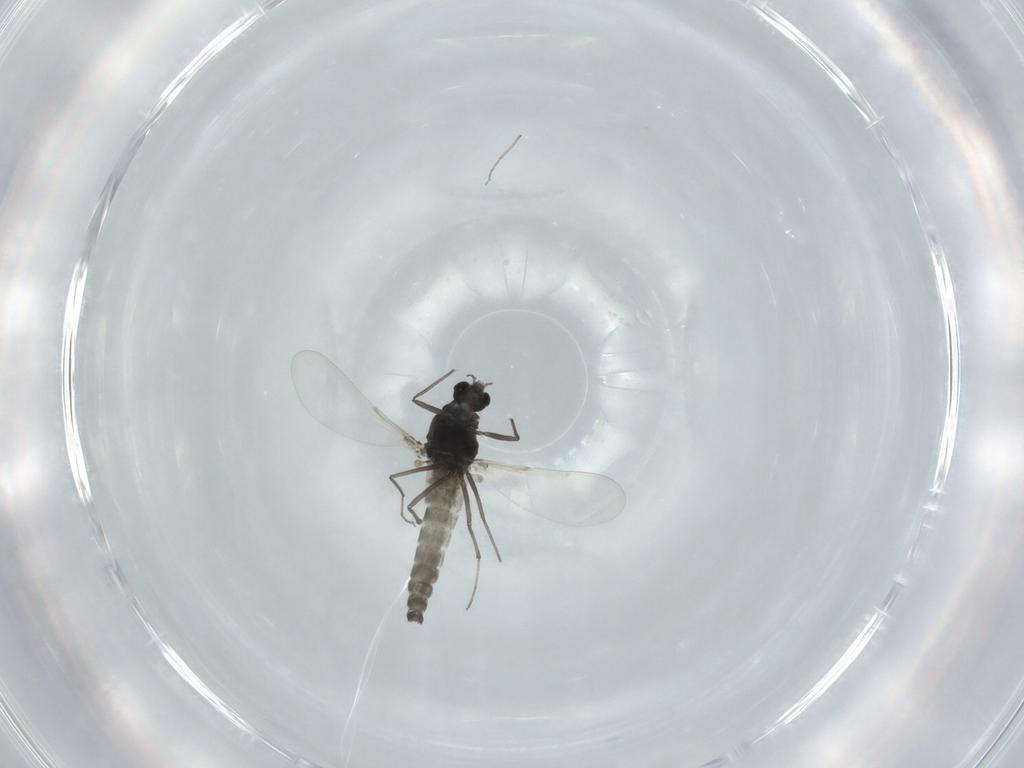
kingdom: Animalia
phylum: Arthropoda
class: Insecta
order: Diptera
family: Chironomidae
